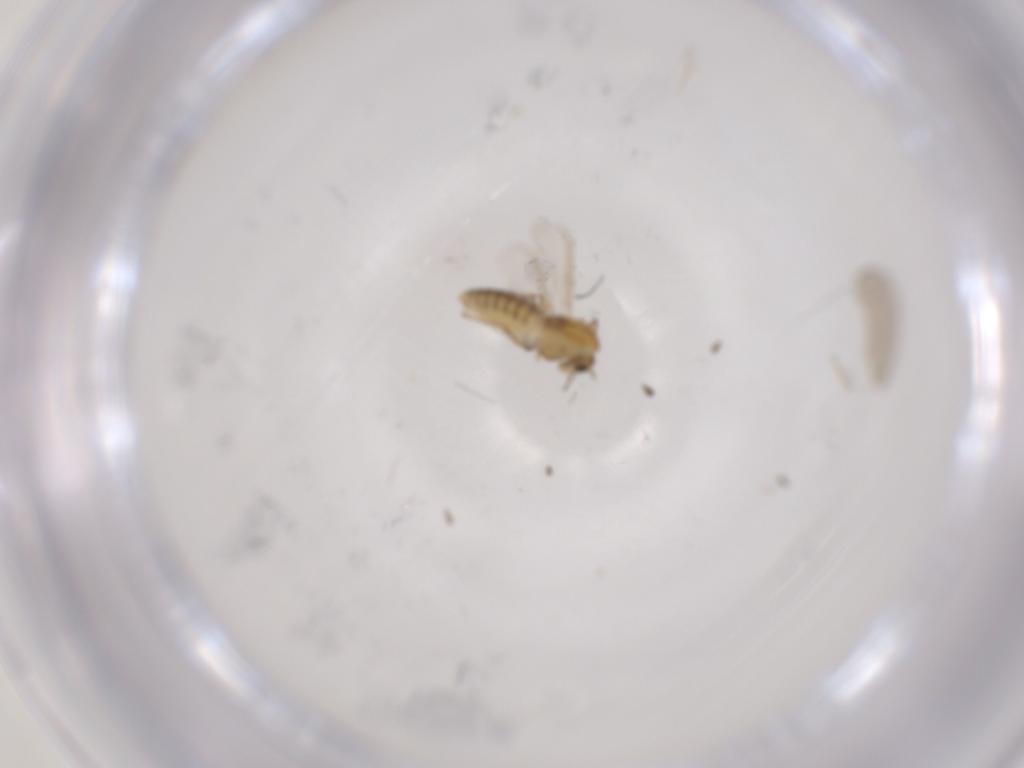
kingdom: Animalia
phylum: Arthropoda
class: Insecta
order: Diptera
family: Chironomidae
